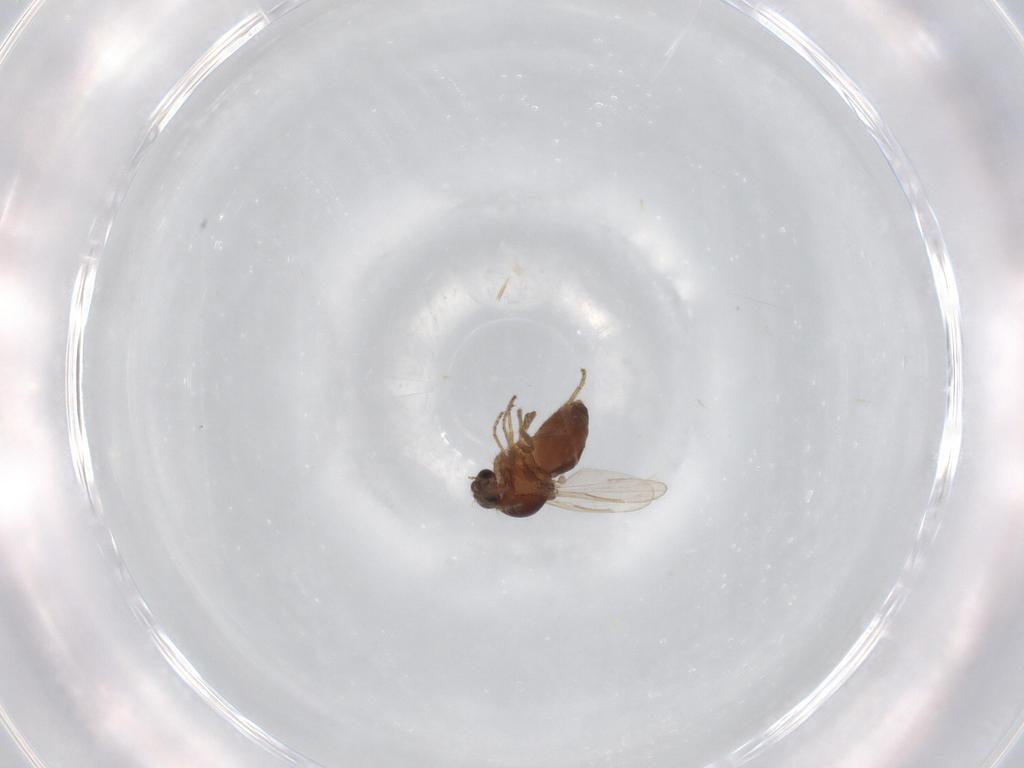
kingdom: Animalia
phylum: Arthropoda
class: Insecta
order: Diptera
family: Ceratopogonidae
